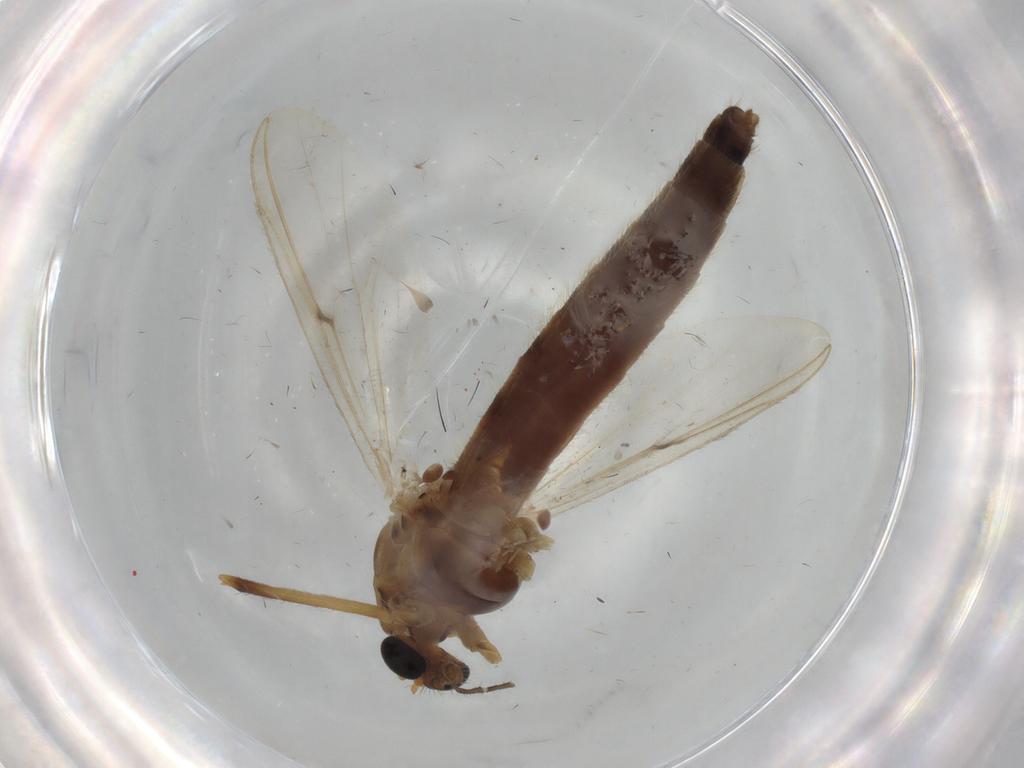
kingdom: Animalia
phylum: Arthropoda
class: Insecta
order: Diptera
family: Chironomidae
